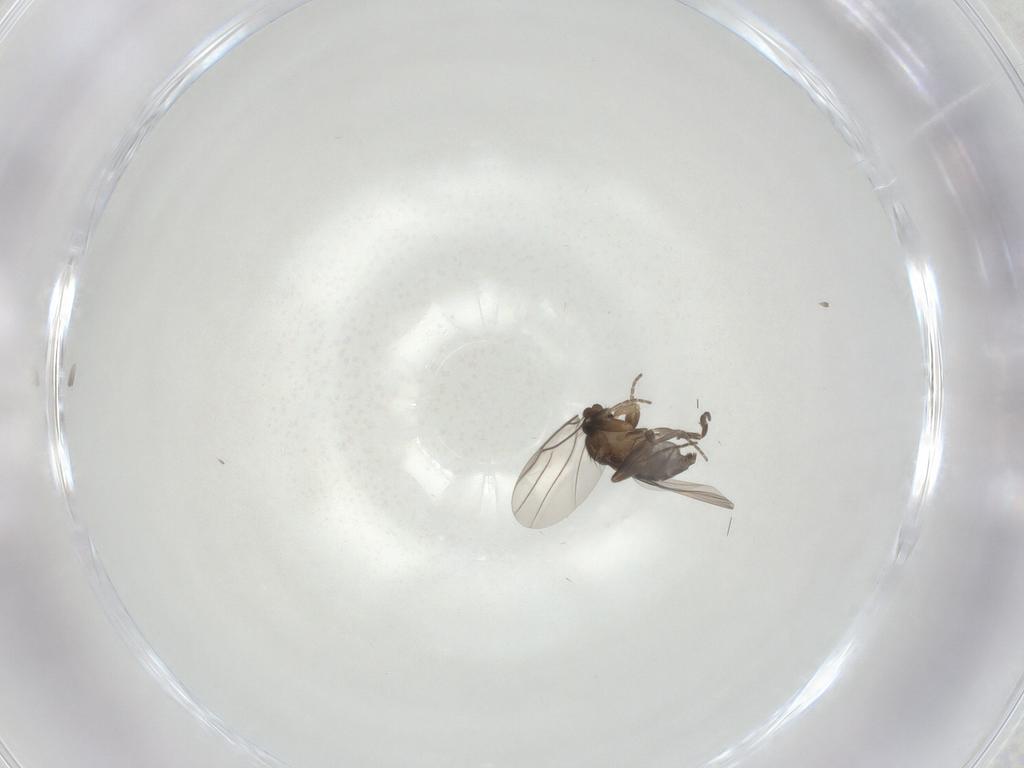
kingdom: Animalia
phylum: Arthropoda
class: Insecta
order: Diptera
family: Phoridae
